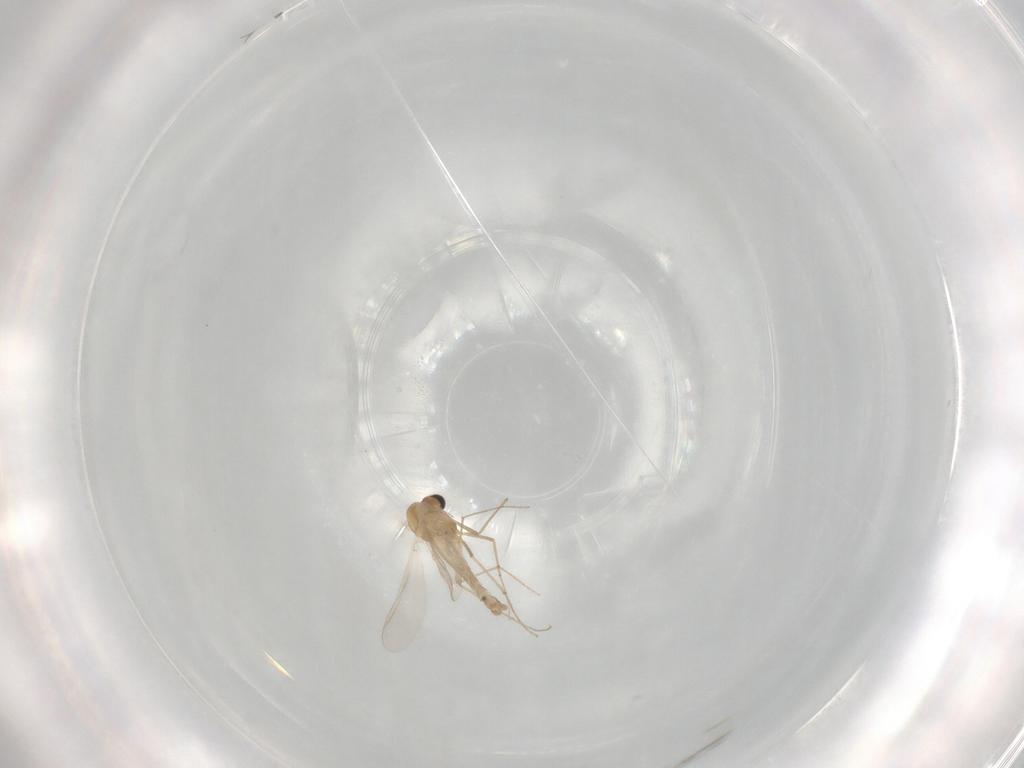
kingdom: Animalia
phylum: Arthropoda
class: Insecta
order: Diptera
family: Chironomidae
